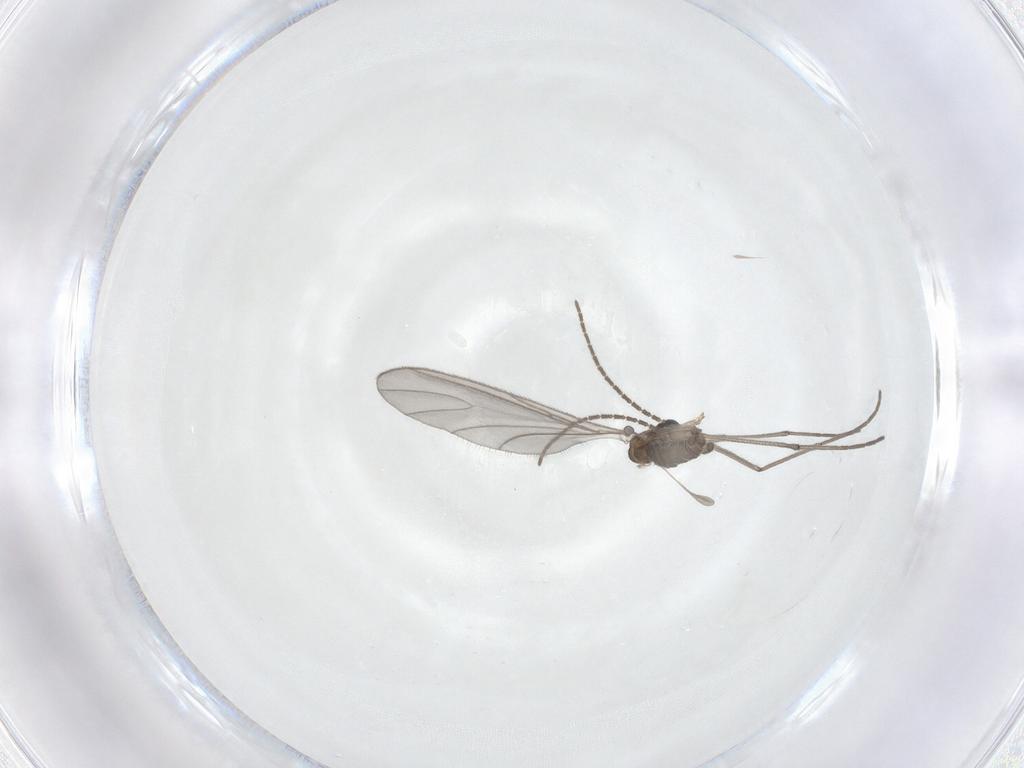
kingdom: Animalia
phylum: Arthropoda
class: Insecta
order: Diptera
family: Sciaridae
